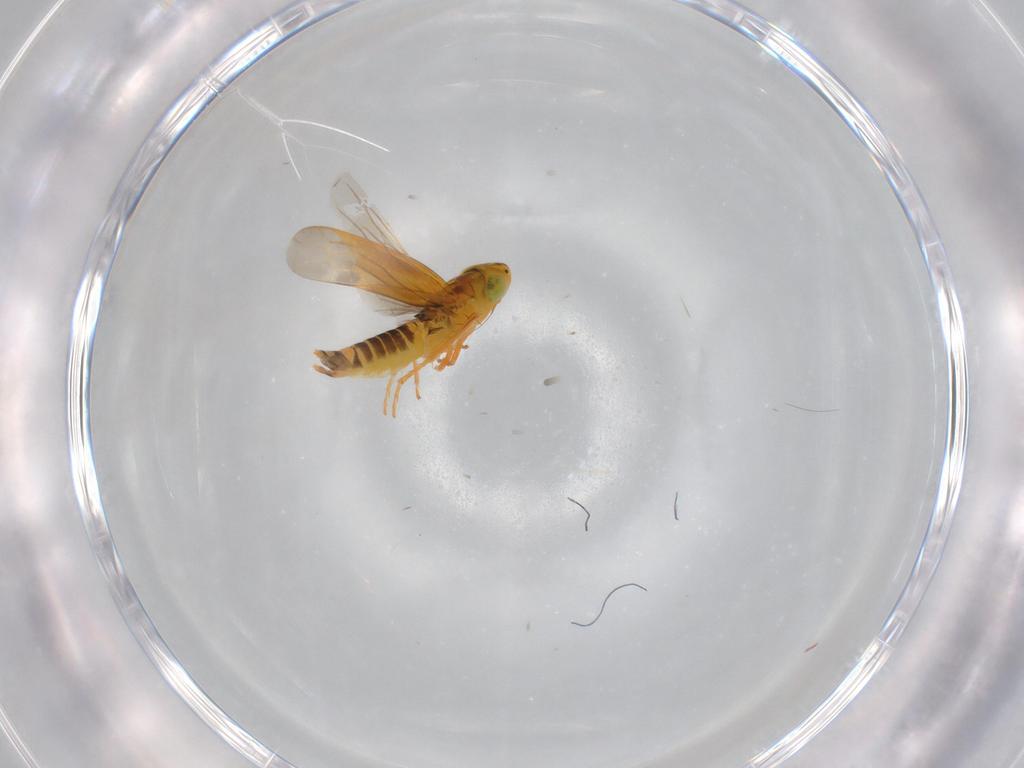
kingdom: Animalia
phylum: Arthropoda
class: Insecta
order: Hemiptera
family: Cicadellidae
